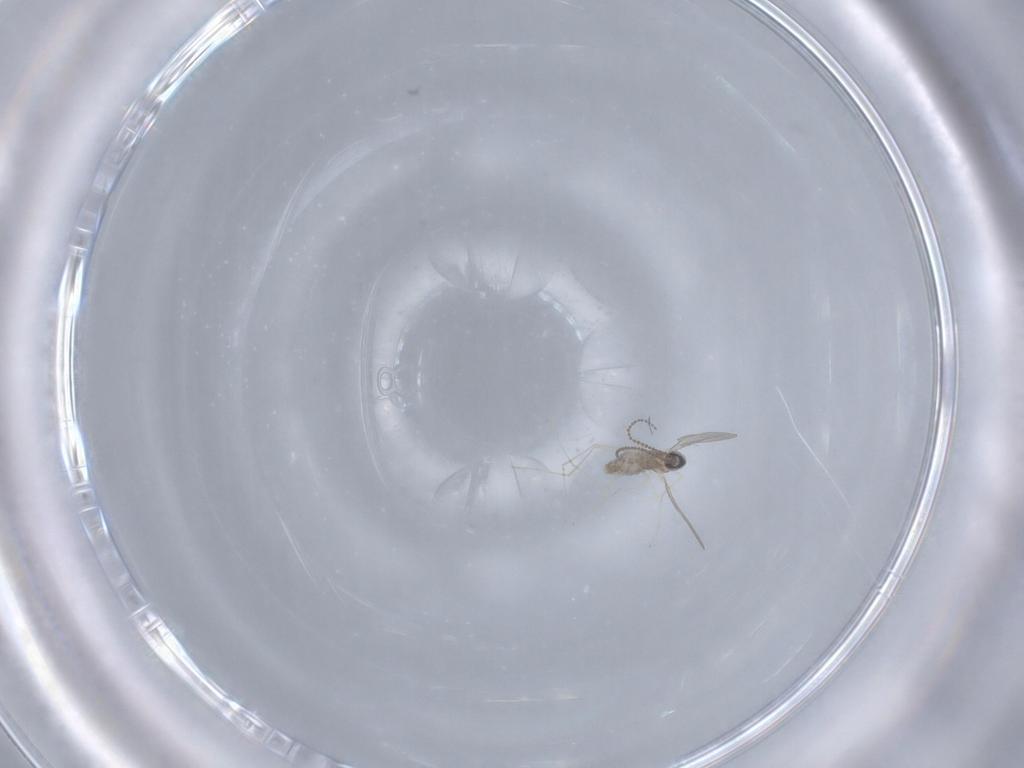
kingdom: Animalia
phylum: Arthropoda
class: Insecta
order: Diptera
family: Cecidomyiidae
